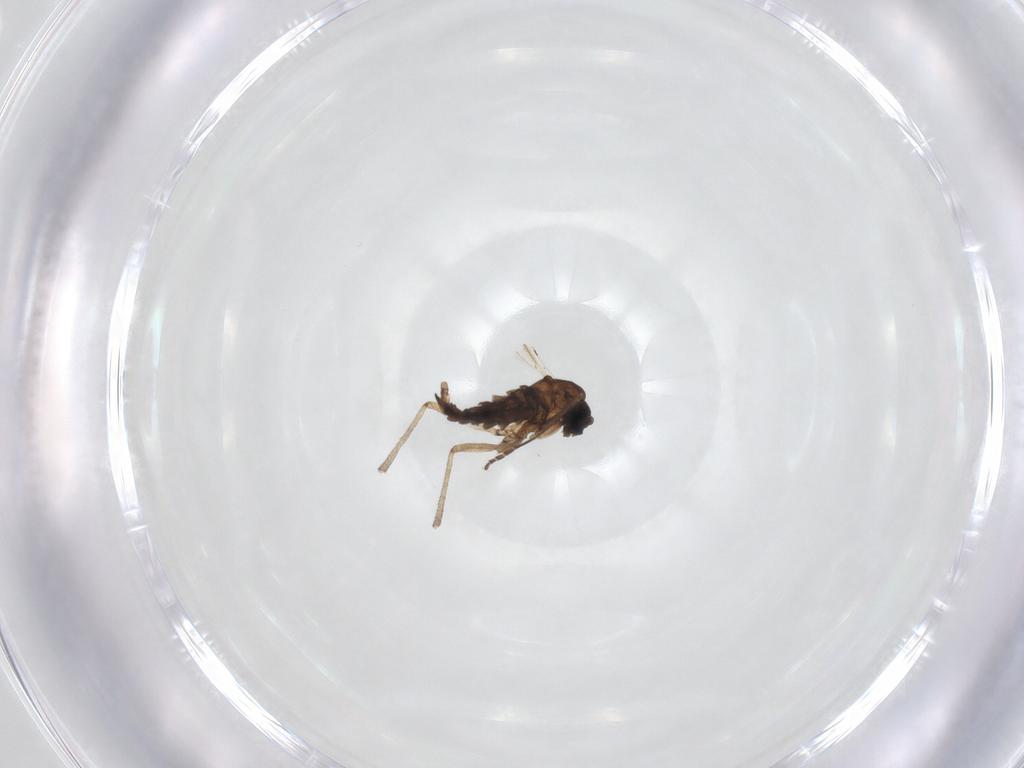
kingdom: Animalia
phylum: Arthropoda
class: Insecta
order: Diptera
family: Sciaridae
